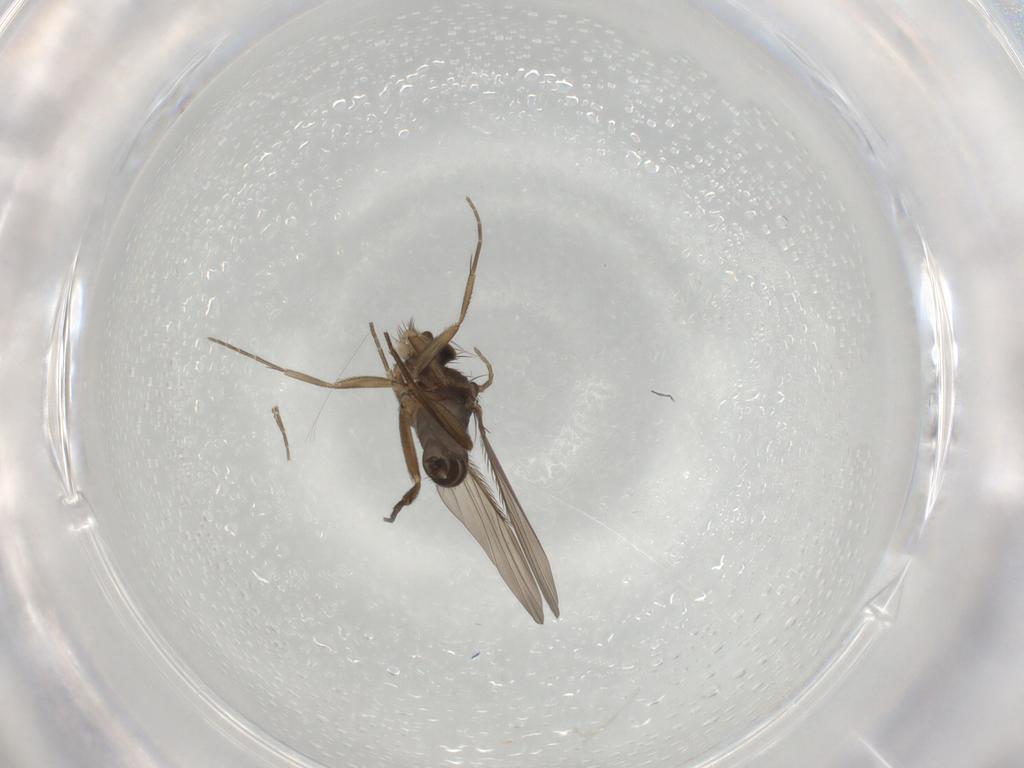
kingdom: Animalia
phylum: Arthropoda
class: Insecta
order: Diptera
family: Phoridae
